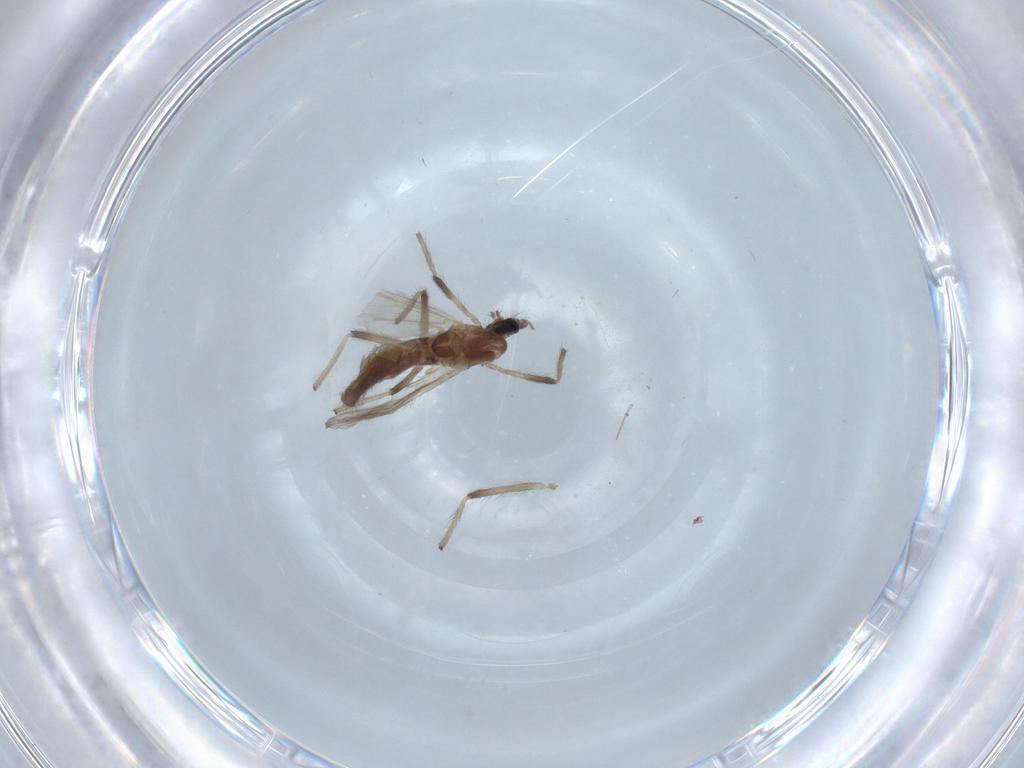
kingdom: Animalia
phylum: Arthropoda
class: Insecta
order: Diptera
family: Chironomidae
